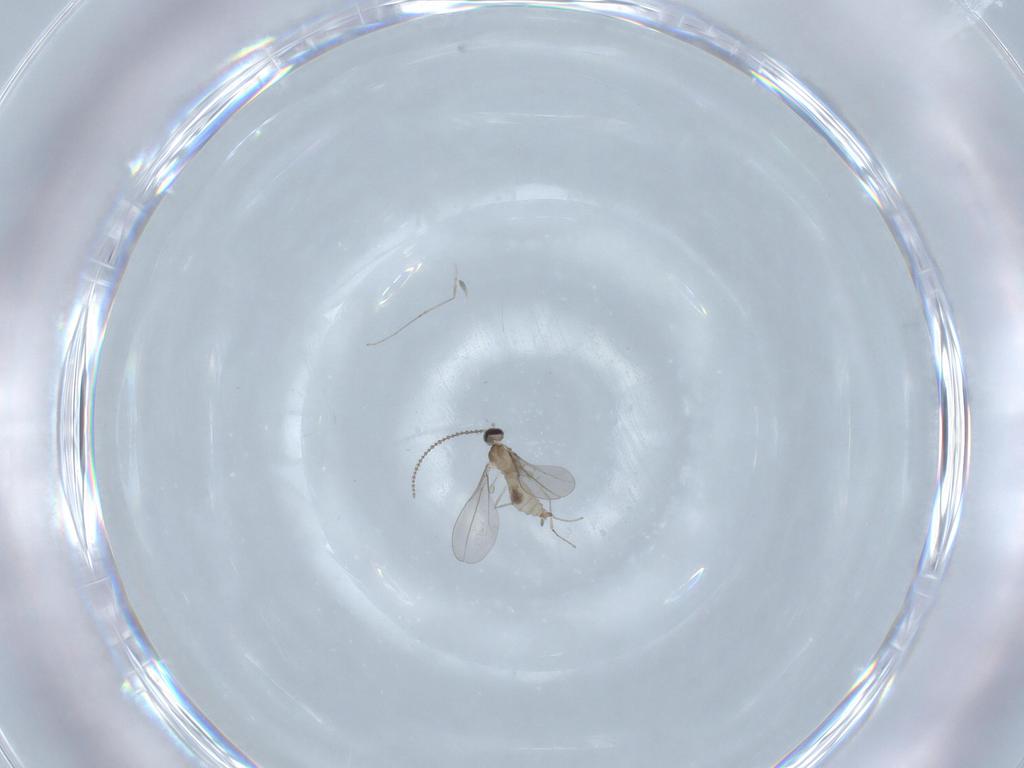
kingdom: Animalia
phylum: Arthropoda
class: Insecta
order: Diptera
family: Cecidomyiidae
